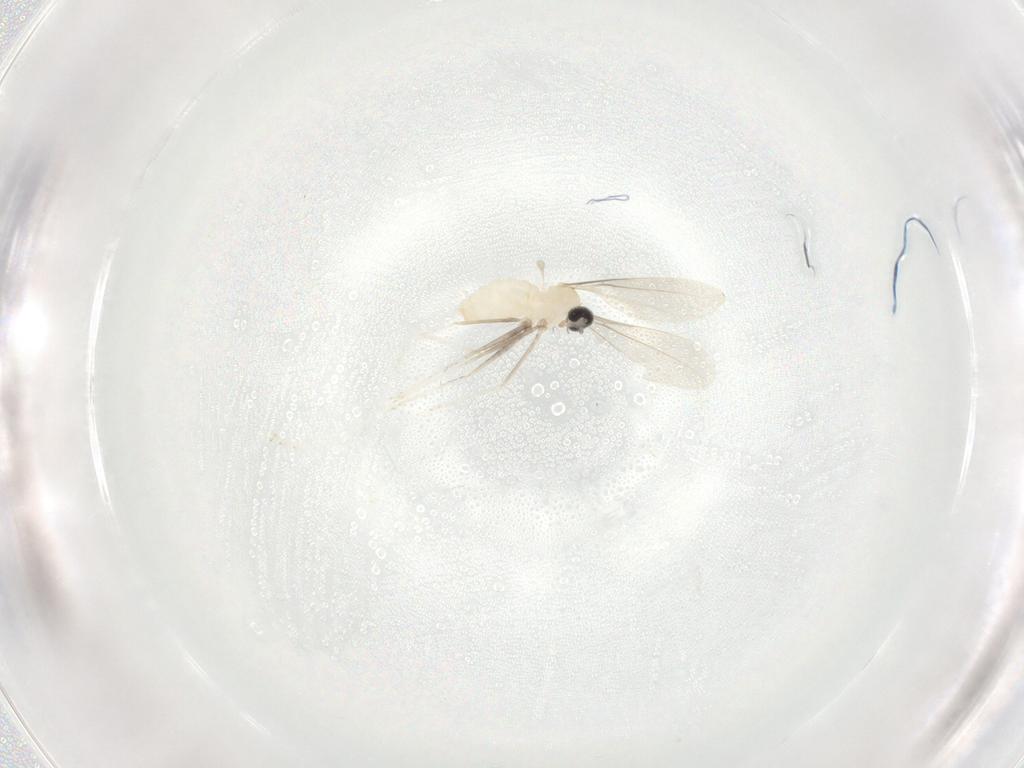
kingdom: Animalia
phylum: Arthropoda
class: Insecta
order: Diptera
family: Cecidomyiidae
